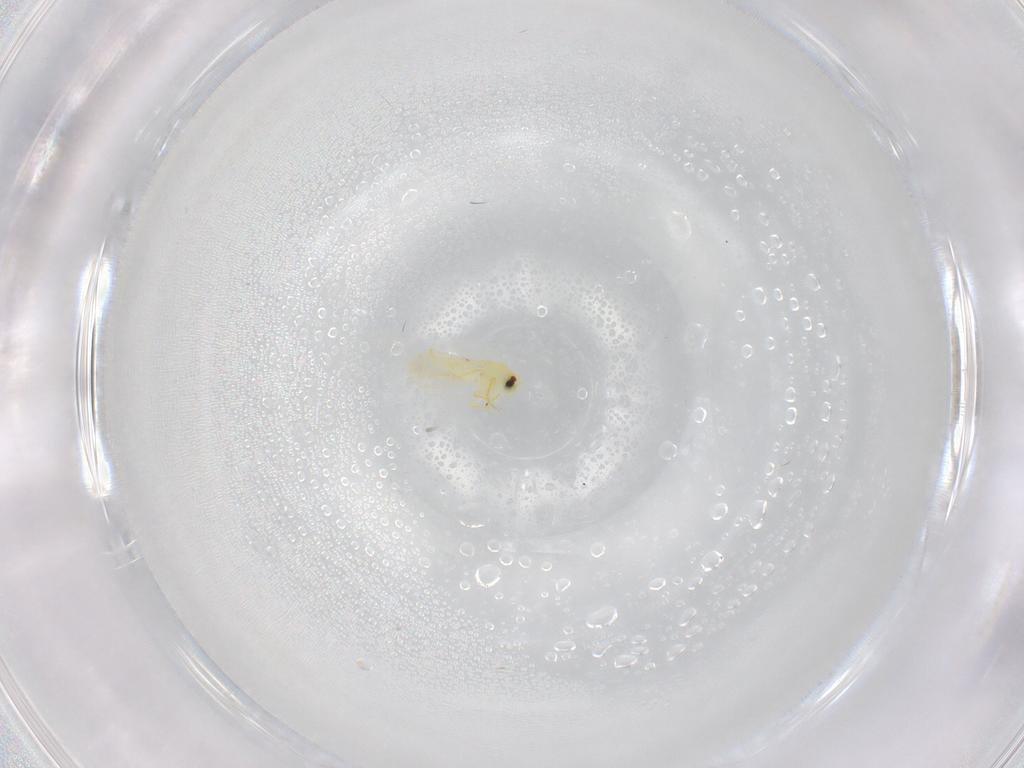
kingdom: Animalia
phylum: Arthropoda
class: Insecta
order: Hemiptera
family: Aleyrodidae
